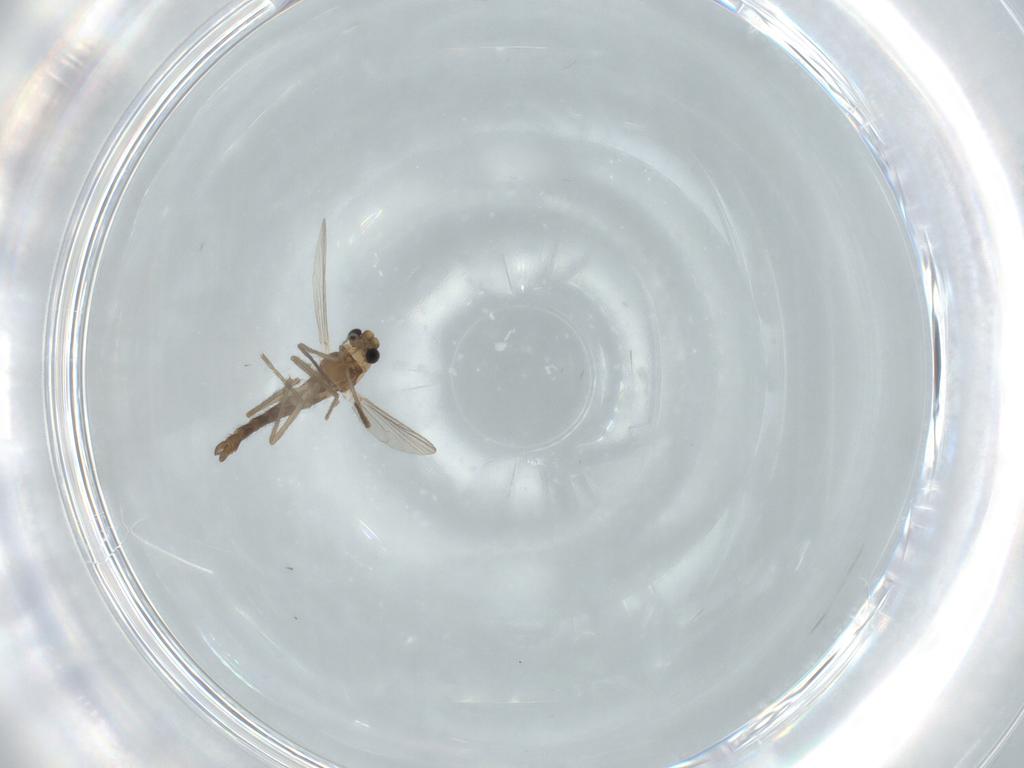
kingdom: Animalia
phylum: Arthropoda
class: Insecta
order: Diptera
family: Chironomidae
